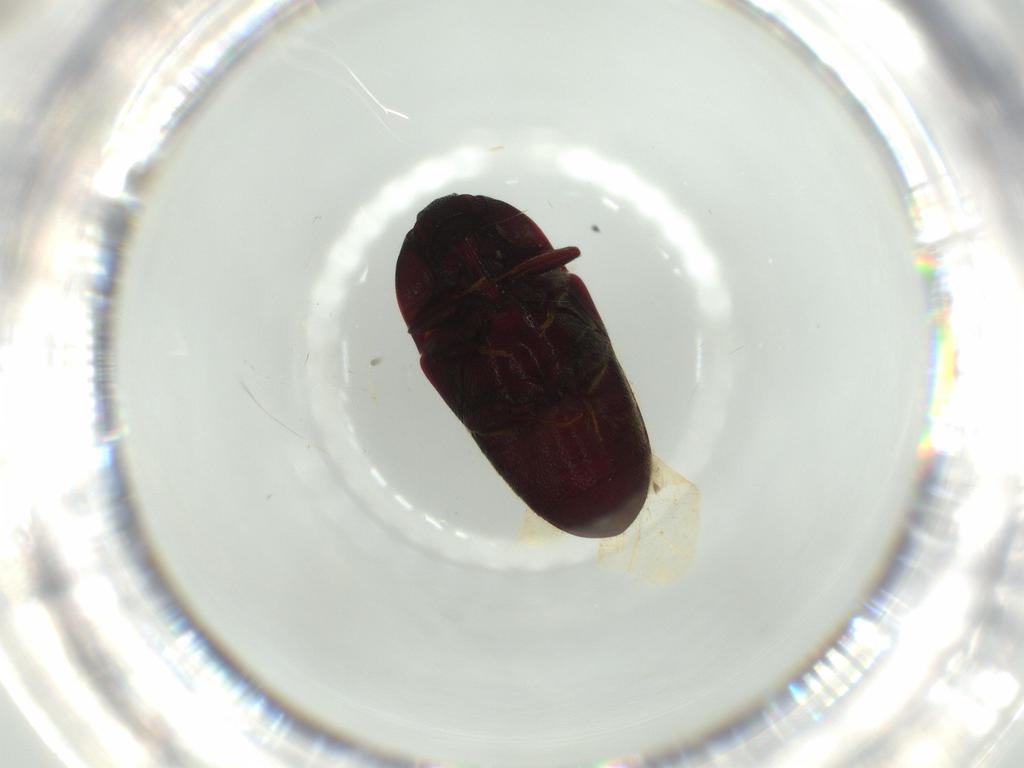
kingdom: Animalia
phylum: Arthropoda
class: Insecta
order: Coleoptera
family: Throscidae
